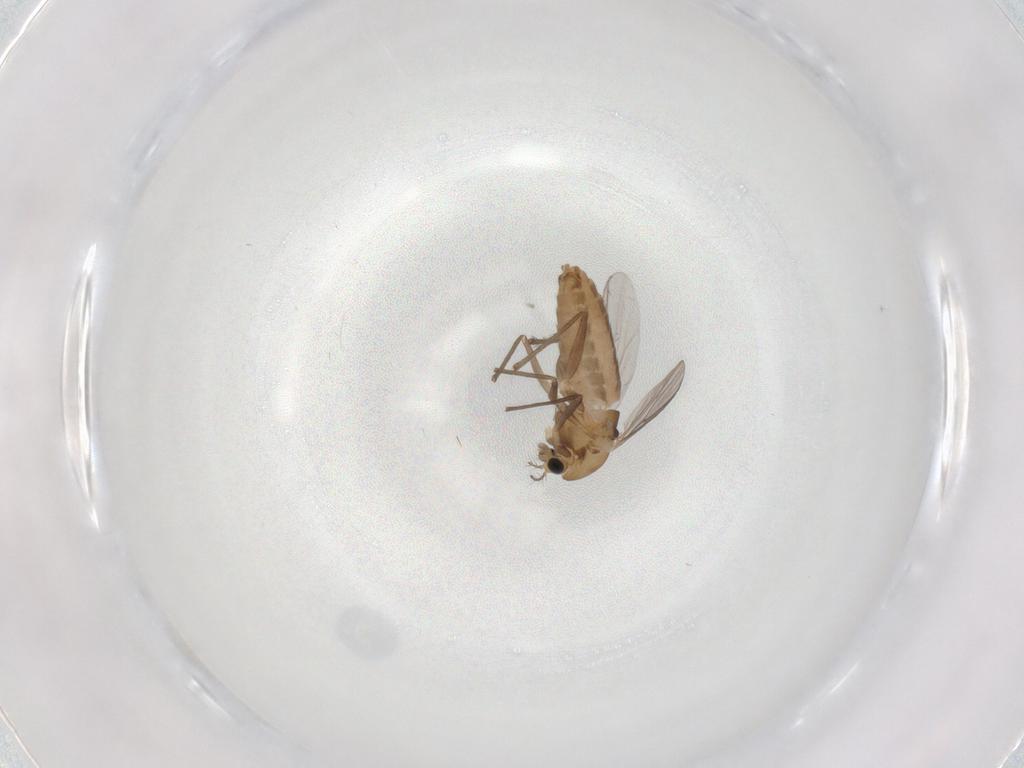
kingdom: Animalia
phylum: Arthropoda
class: Insecta
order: Diptera
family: Chironomidae
